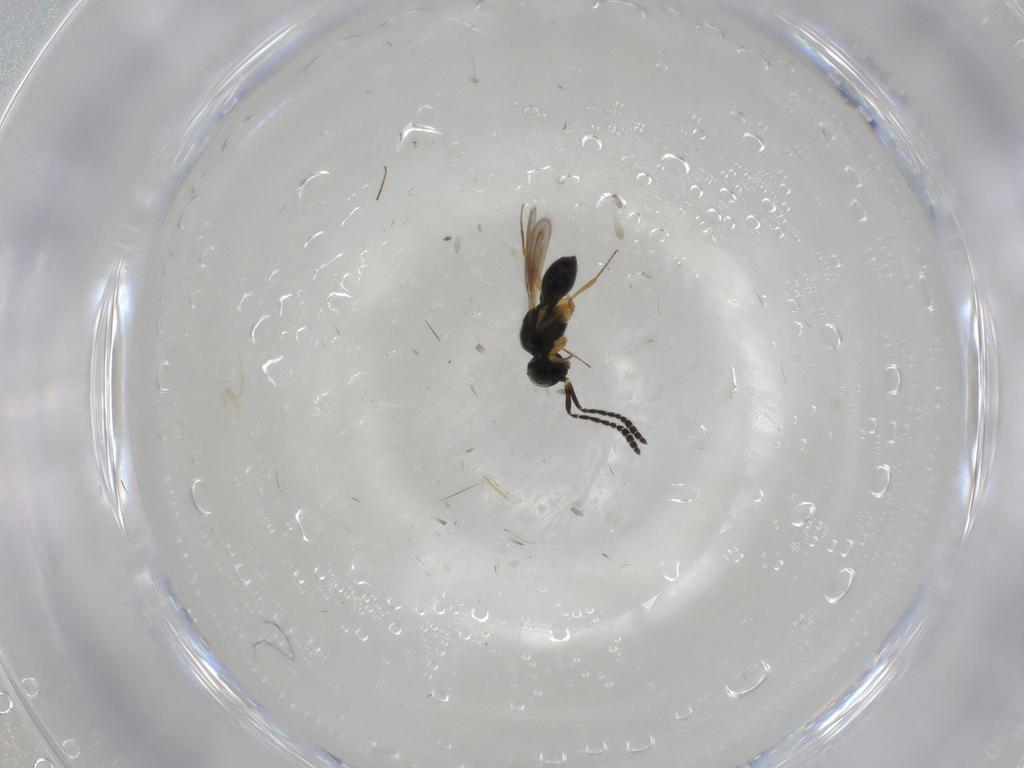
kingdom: Animalia
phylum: Arthropoda
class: Insecta
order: Hymenoptera
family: Scelionidae
